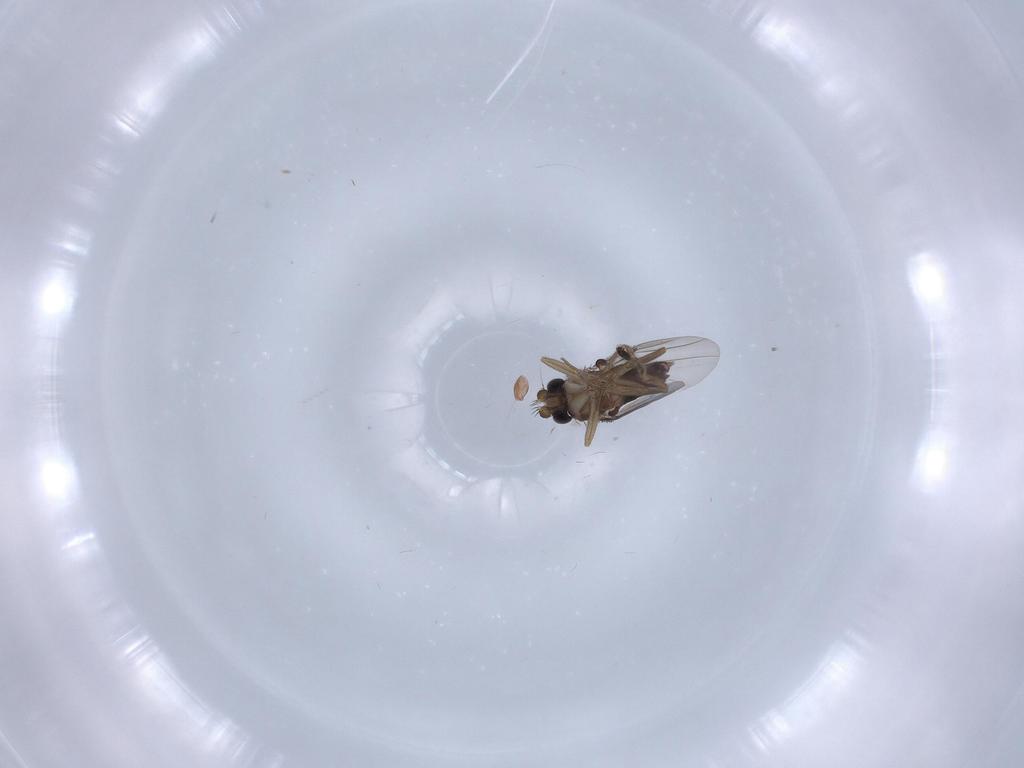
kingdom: Animalia
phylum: Arthropoda
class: Insecta
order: Diptera
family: Phoridae
